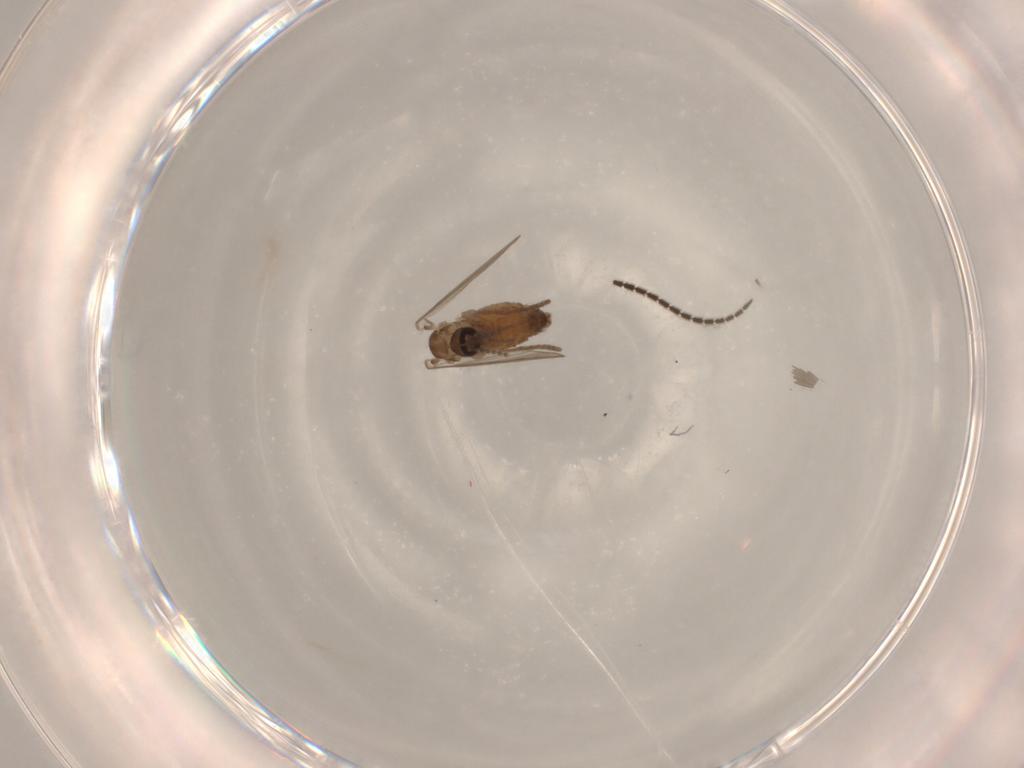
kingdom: Animalia
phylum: Arthropoda
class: Insecta
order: Diptera
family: Psychodidae
